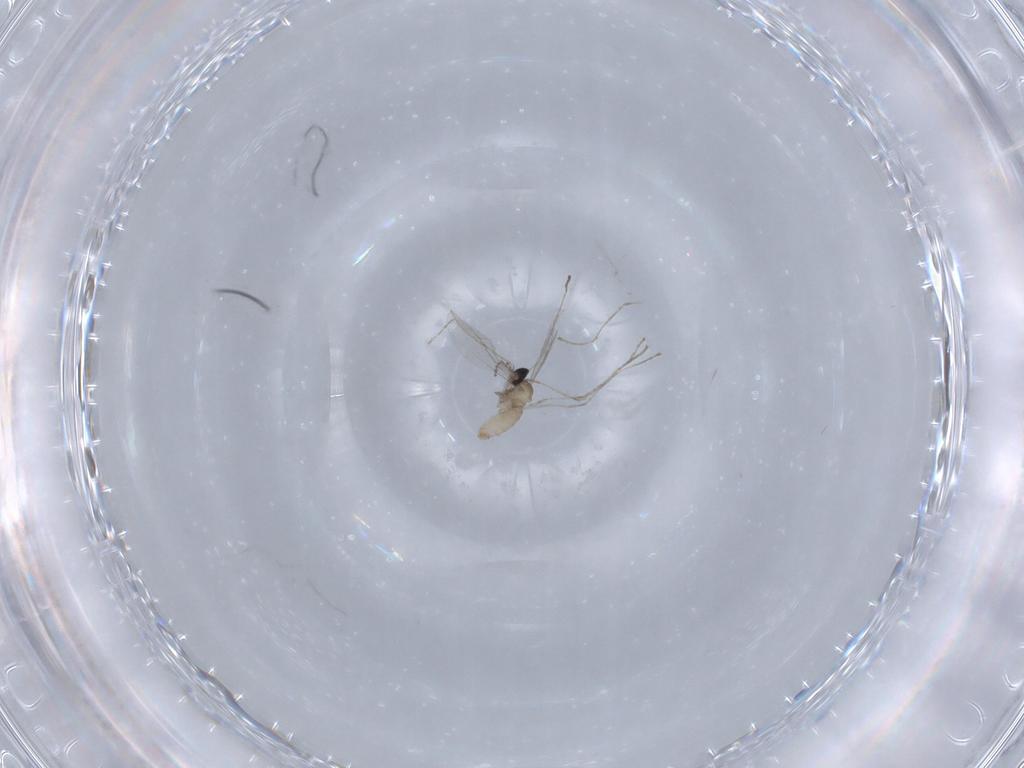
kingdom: Animalia
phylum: Arthropoda
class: Insecta
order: Diptera
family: Cecidomyiidae
